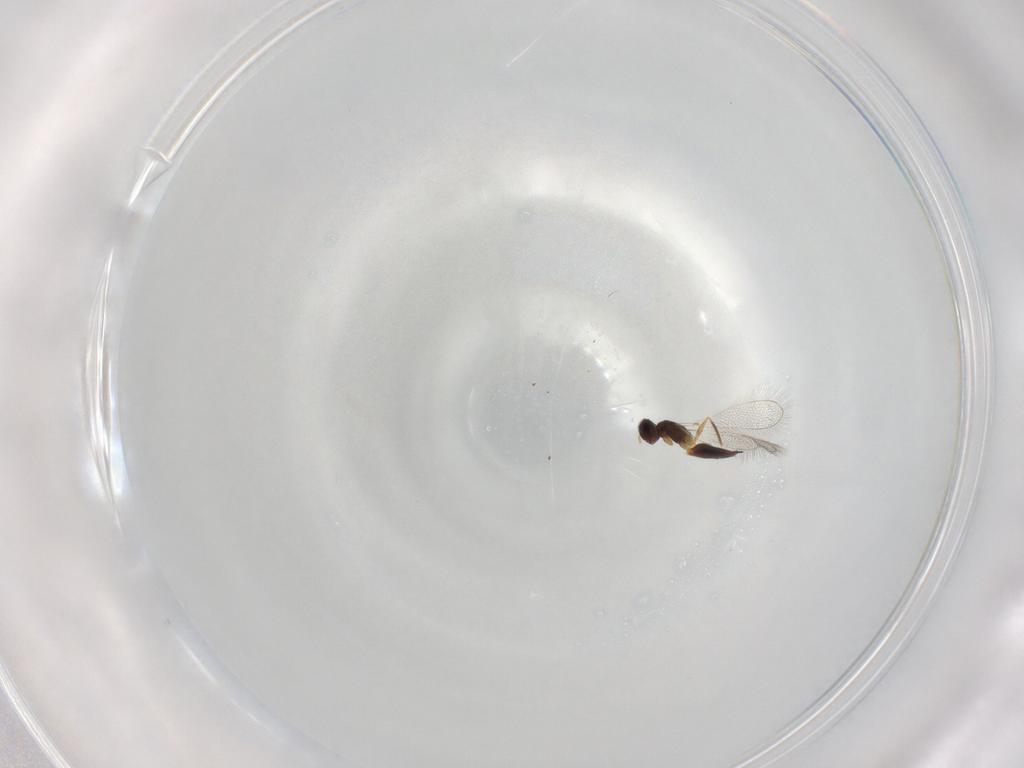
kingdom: Animalia
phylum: Arthropoda
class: Insecta
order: Hymenoptera
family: Mymaridae
